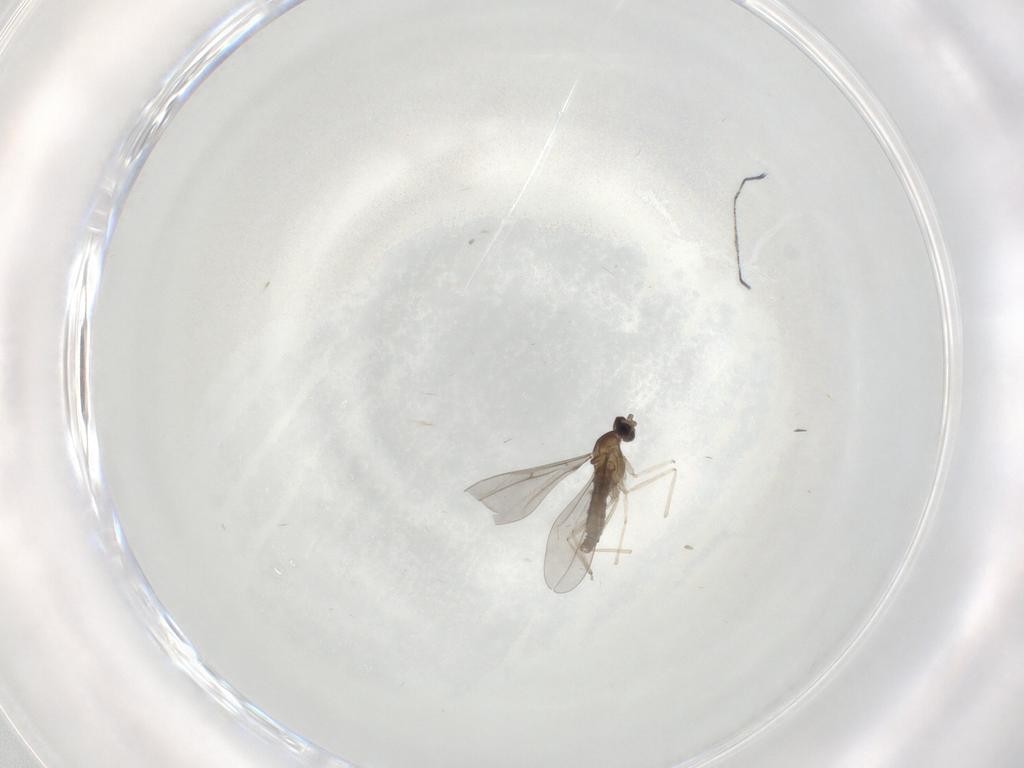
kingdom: Animalia
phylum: Arthropoda
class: Insecta
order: Diptera
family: Cecidomyiidae
